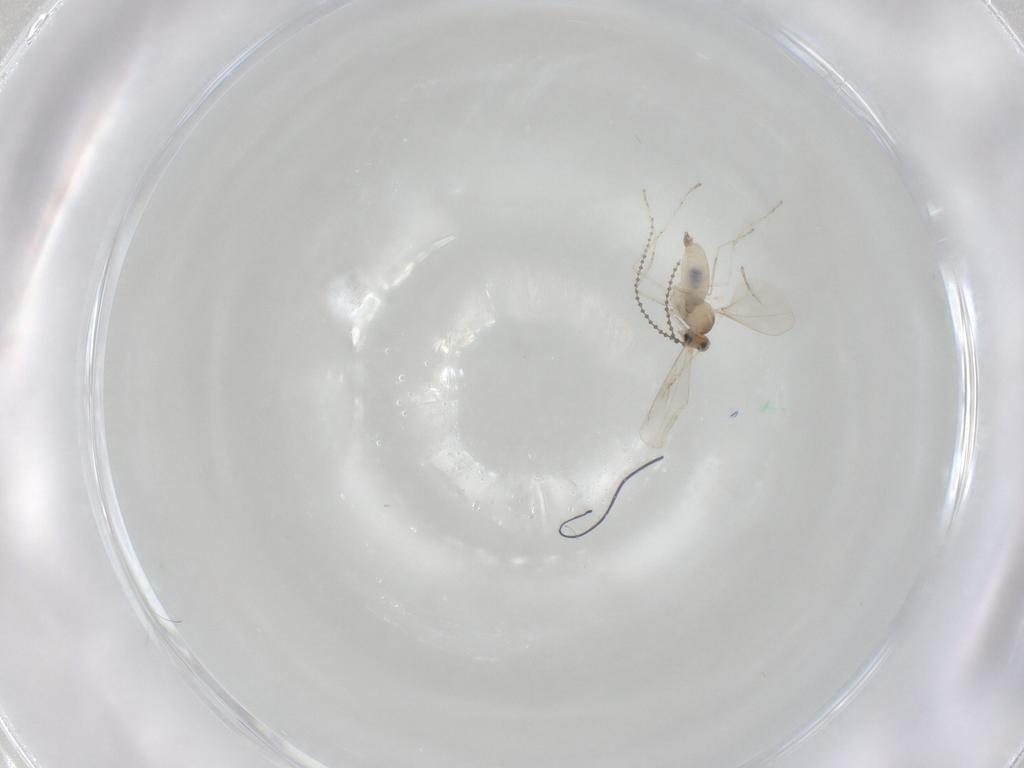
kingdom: Animalia
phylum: Arthropoda
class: Insecta
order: Diptera
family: Cecidomyiidae
